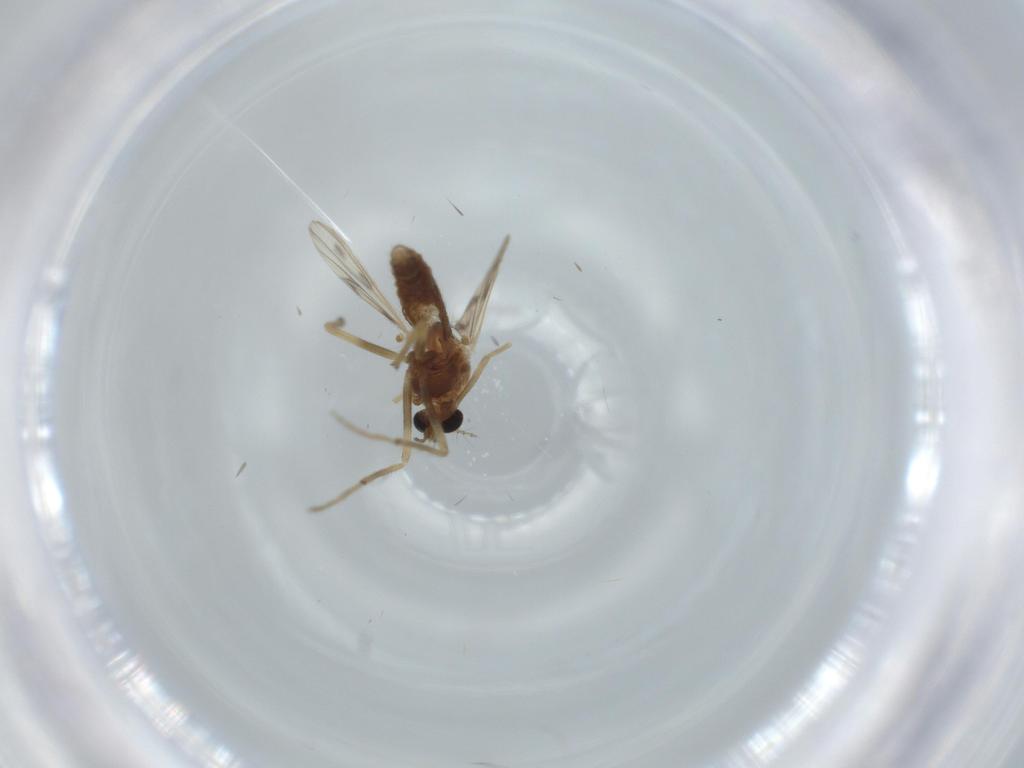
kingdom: Animalia
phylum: Arthropoda
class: Insecta
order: Diptera
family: Chironomidae
